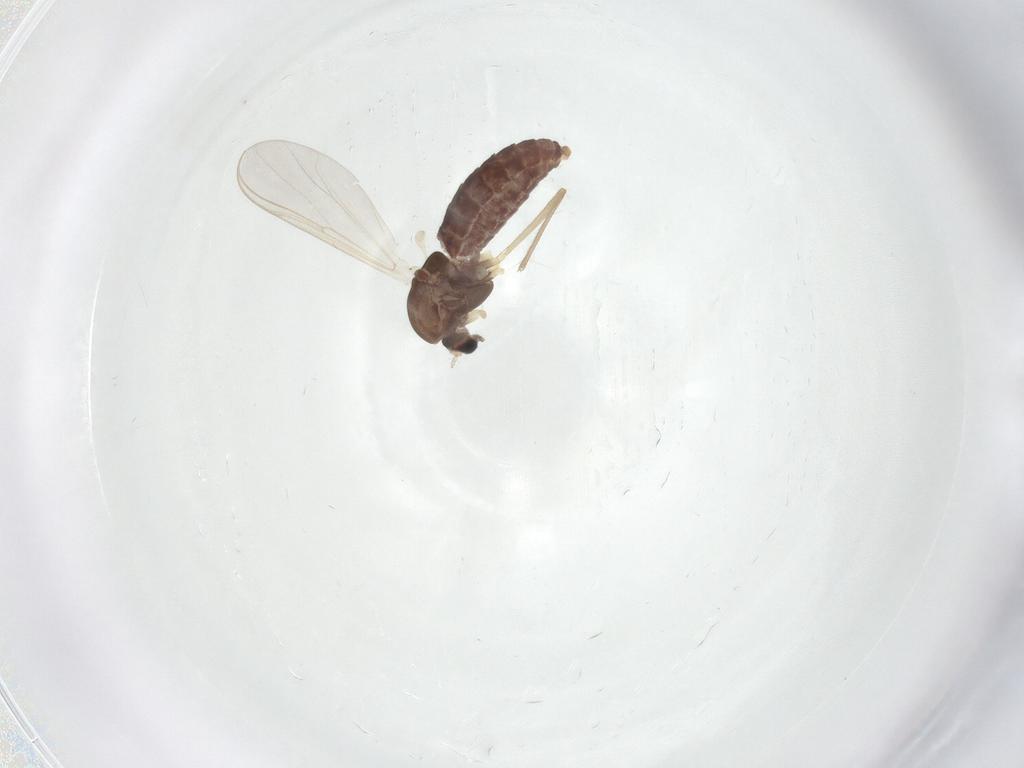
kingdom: Animalia
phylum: Arthropoda
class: Insecta
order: Diptera
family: Chironomidae
